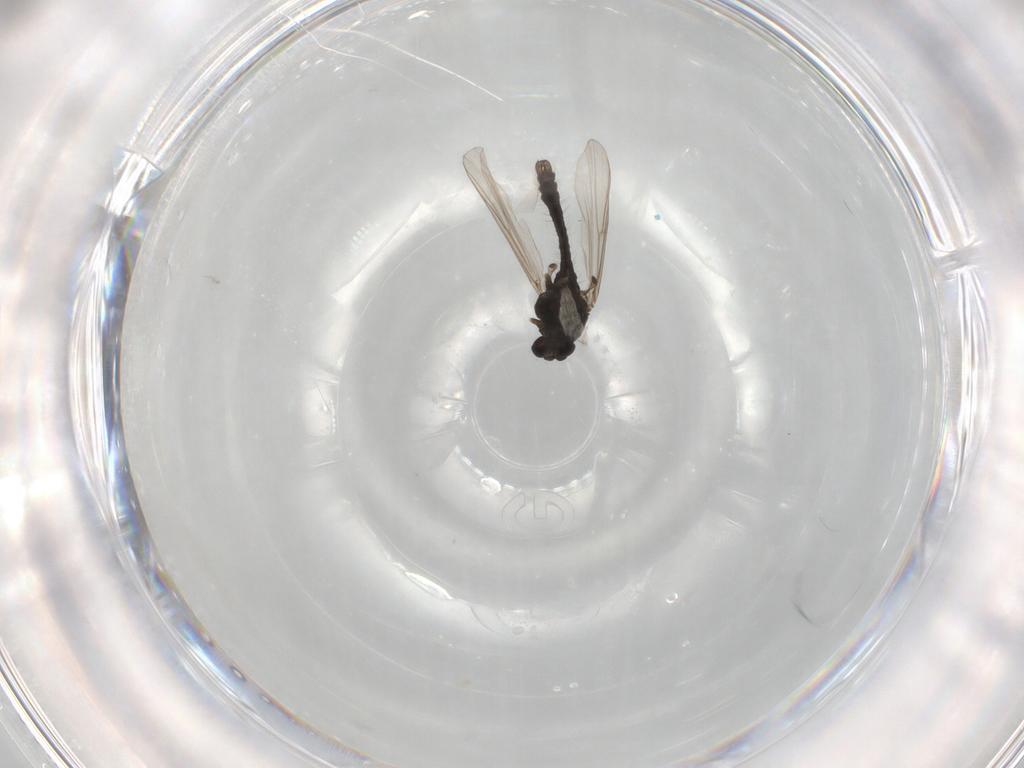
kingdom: Animalia
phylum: Arthropoda
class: Insecta
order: Diptera
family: Chironomidae
